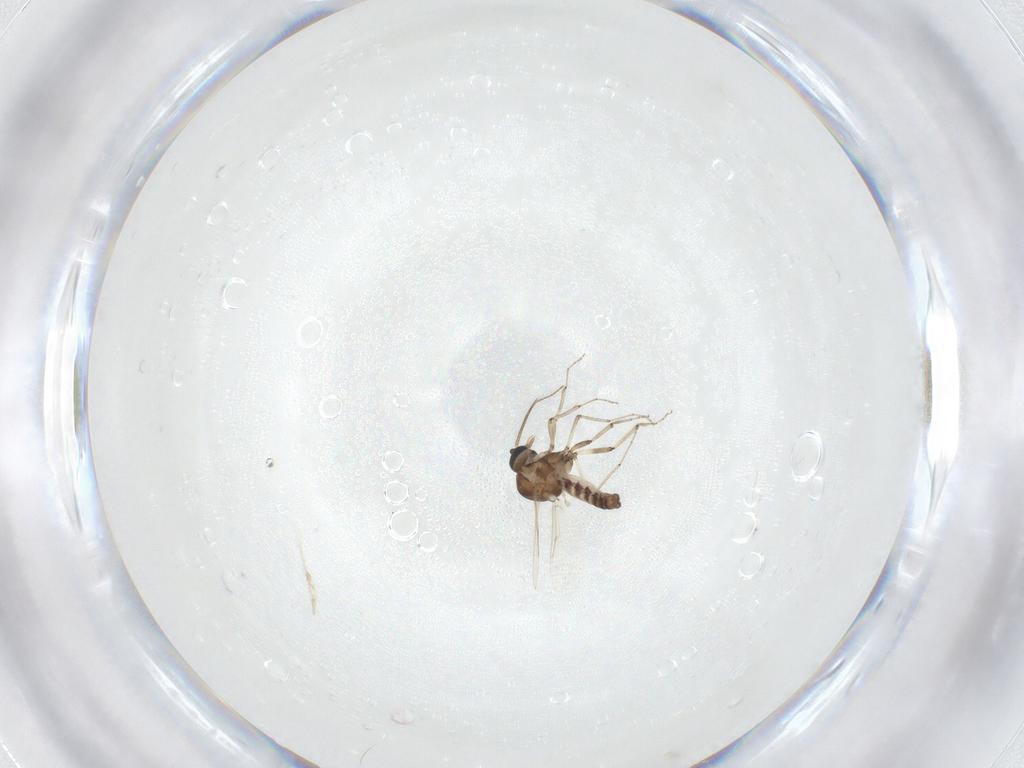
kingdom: Animalia
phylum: Arthropoda
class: Insecta
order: Diptera
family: Ceratopogonidae
